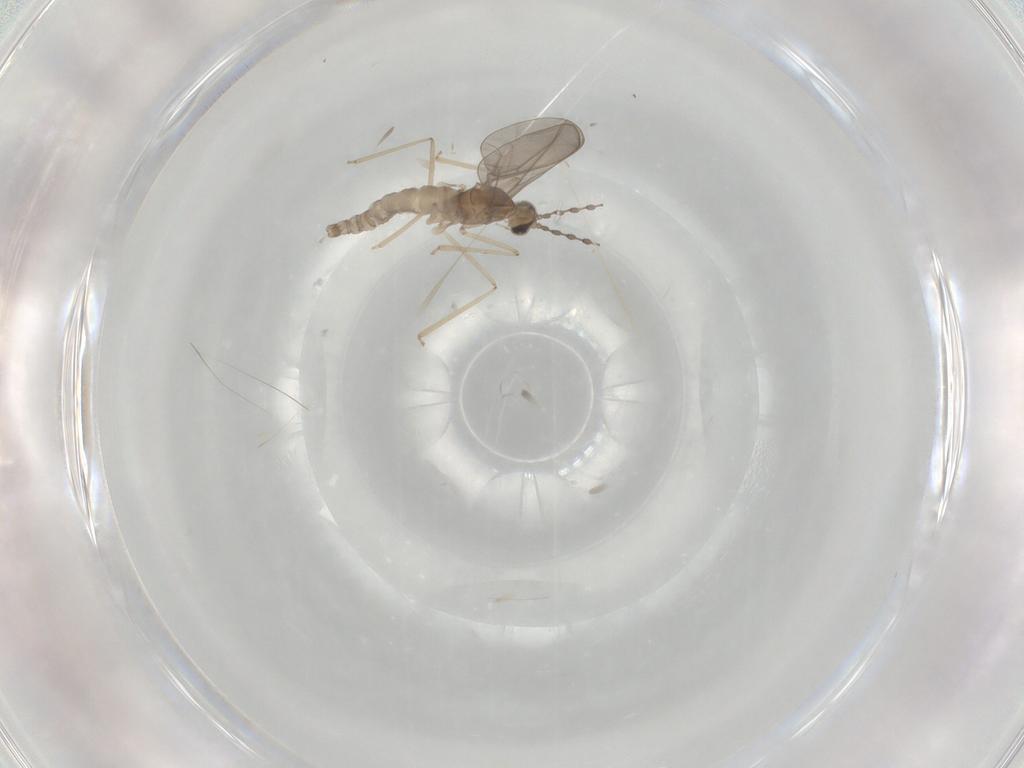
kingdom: Animalia
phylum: Arthropoda
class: Insecta
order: Diptera
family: Cecidomyiidae
